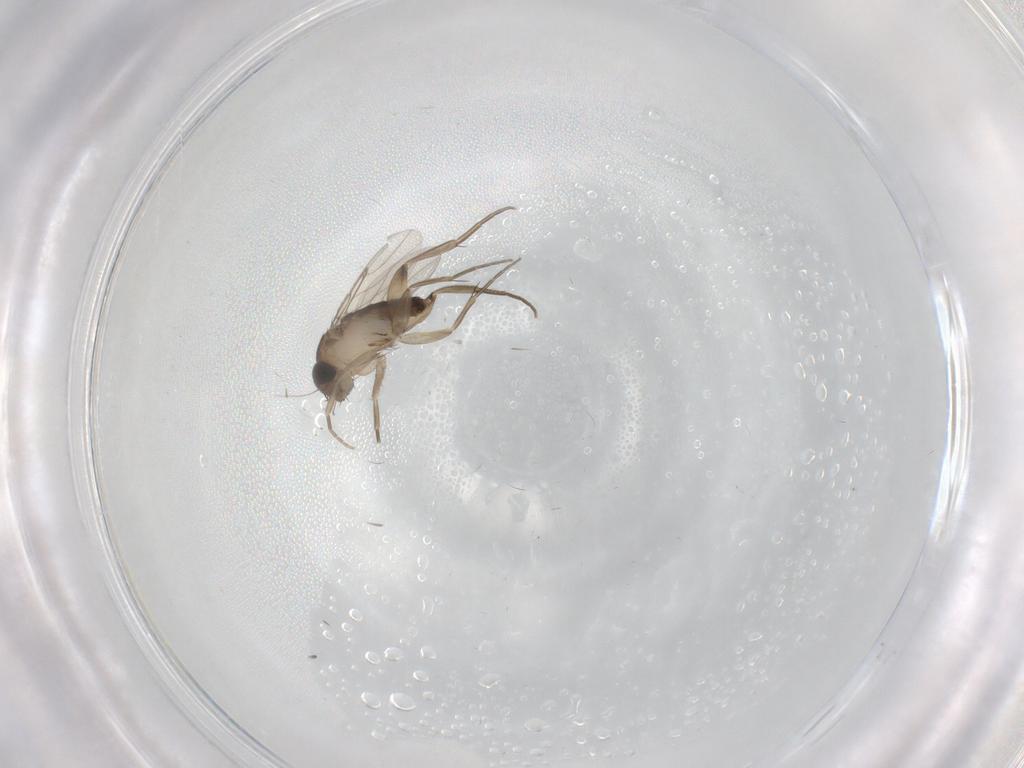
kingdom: Animalia
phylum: Arthropoda
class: Insecta
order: Diptera
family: Phoridae
